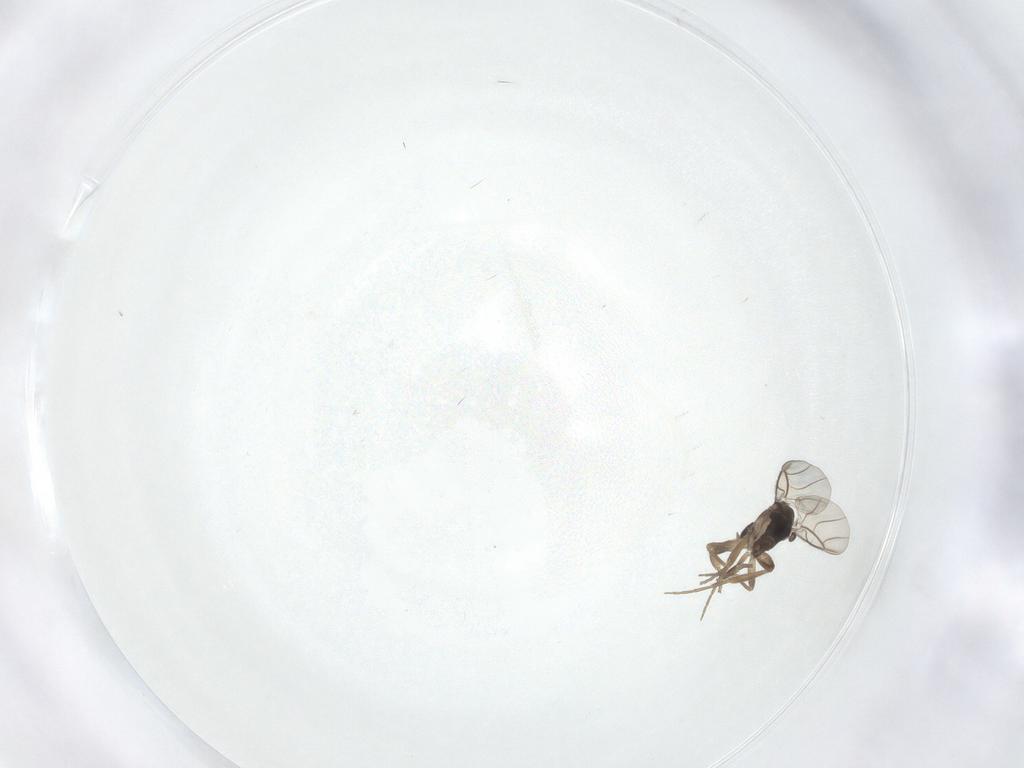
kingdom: Animalia
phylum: Arthropoda
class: Insecta
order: Diptera
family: Phoridae
